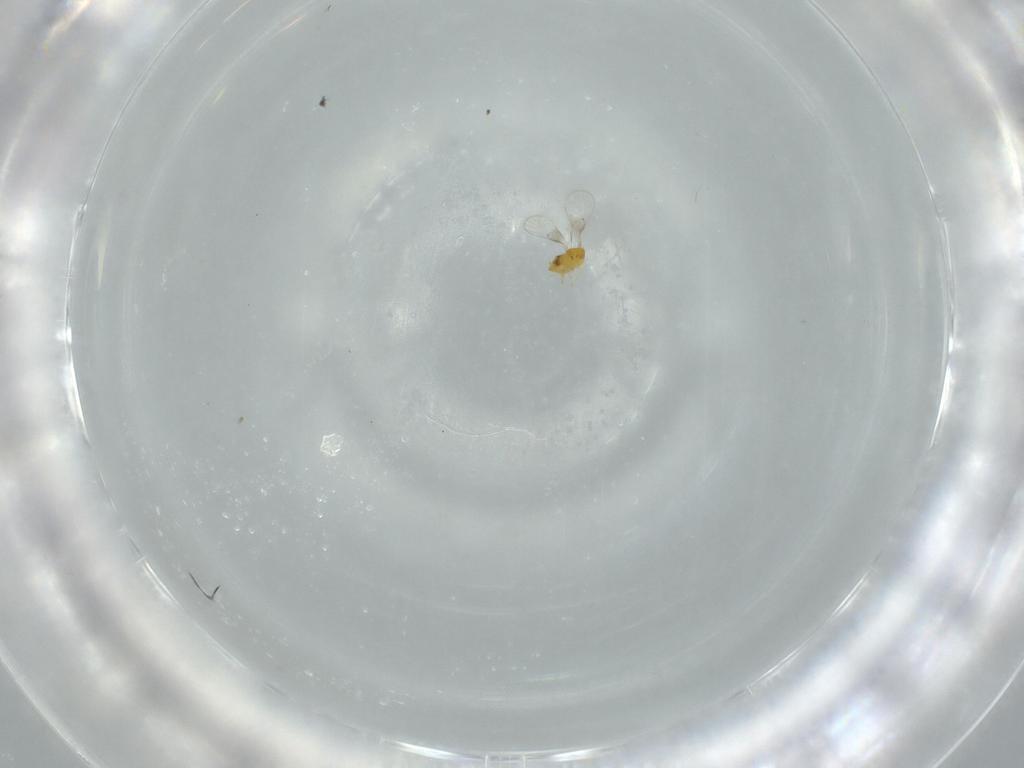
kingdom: Animalia
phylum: Arthropoda
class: Insecta
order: Hymenoptera
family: Trichogrammatidae
